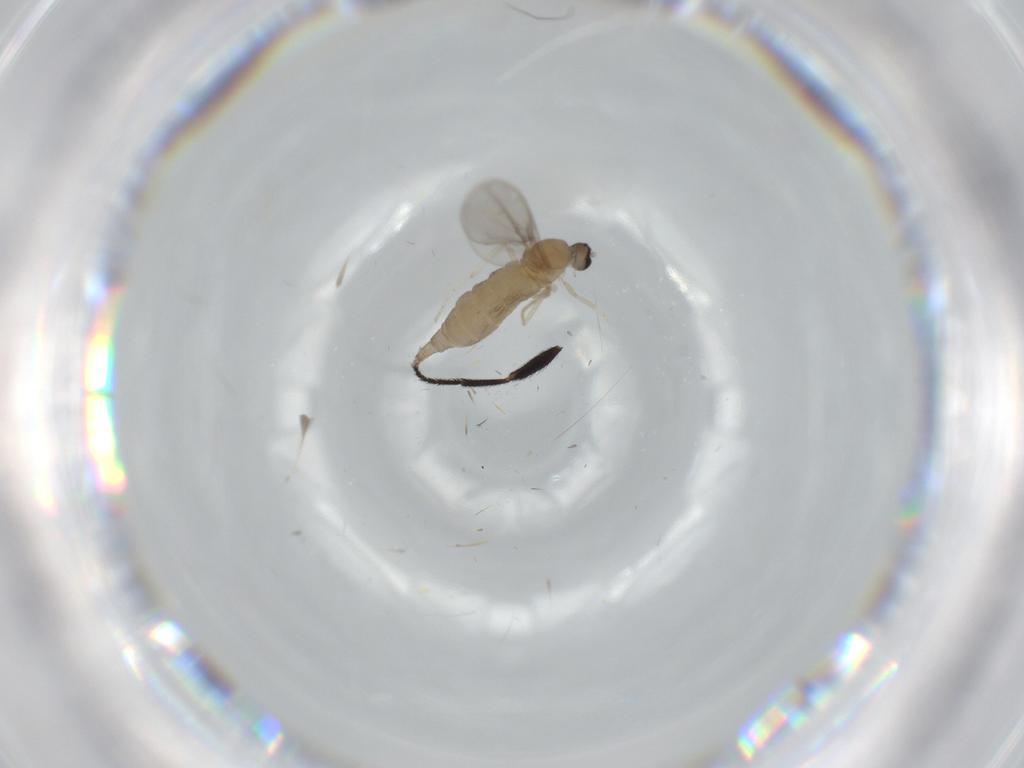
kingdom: Animalia
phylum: Arthropoda
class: Insecta
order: Diptera
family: Cecidomyiidae
